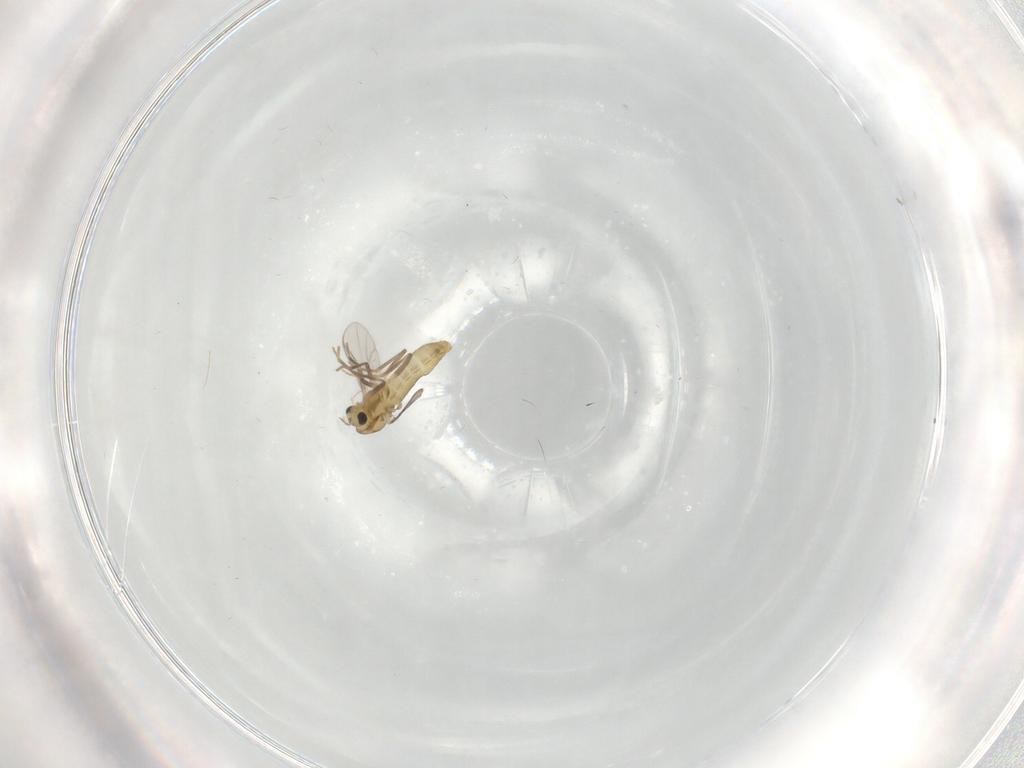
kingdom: Animalia
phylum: Arthropoda
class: Insecta
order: Diptera
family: Chironomidae
